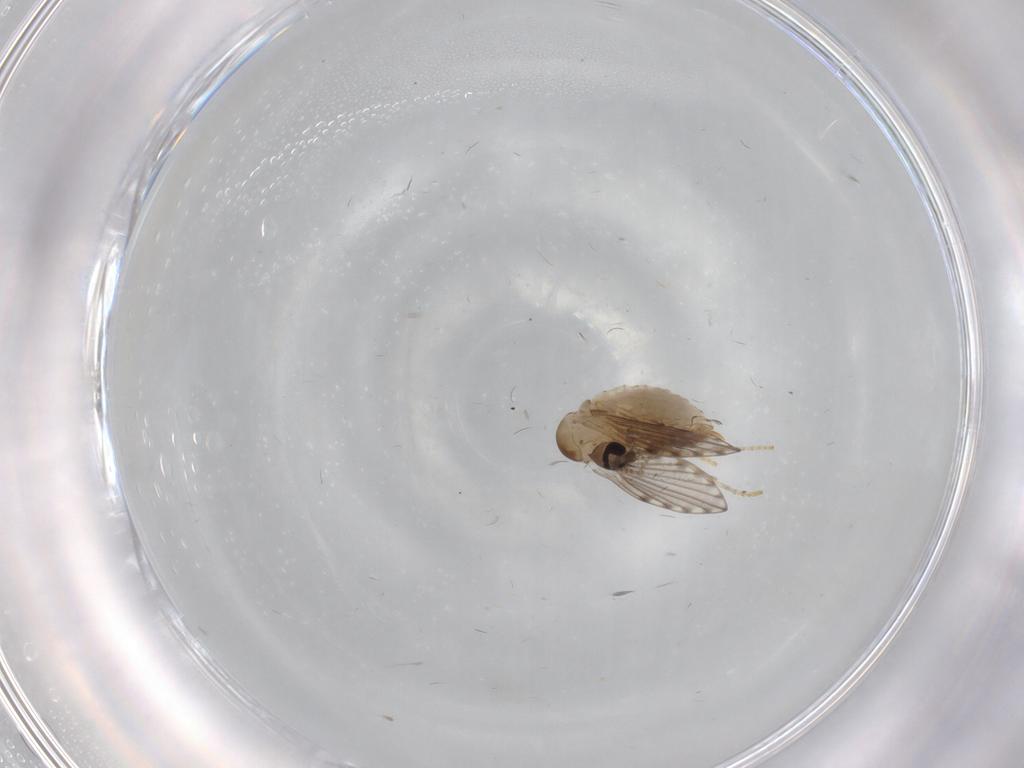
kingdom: Animalia
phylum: Arthropoda
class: Insecta
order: Diptera
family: Psychodidae
